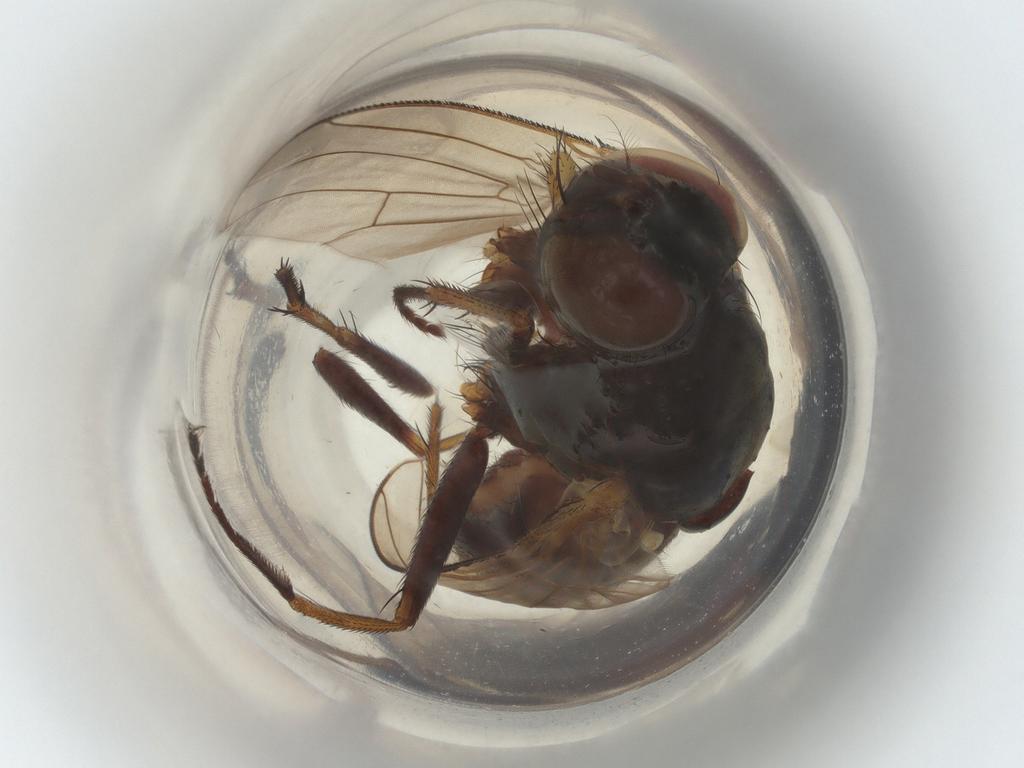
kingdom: Animalia
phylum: Arthropoda
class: Insecta
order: Diptera
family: Muscidae
